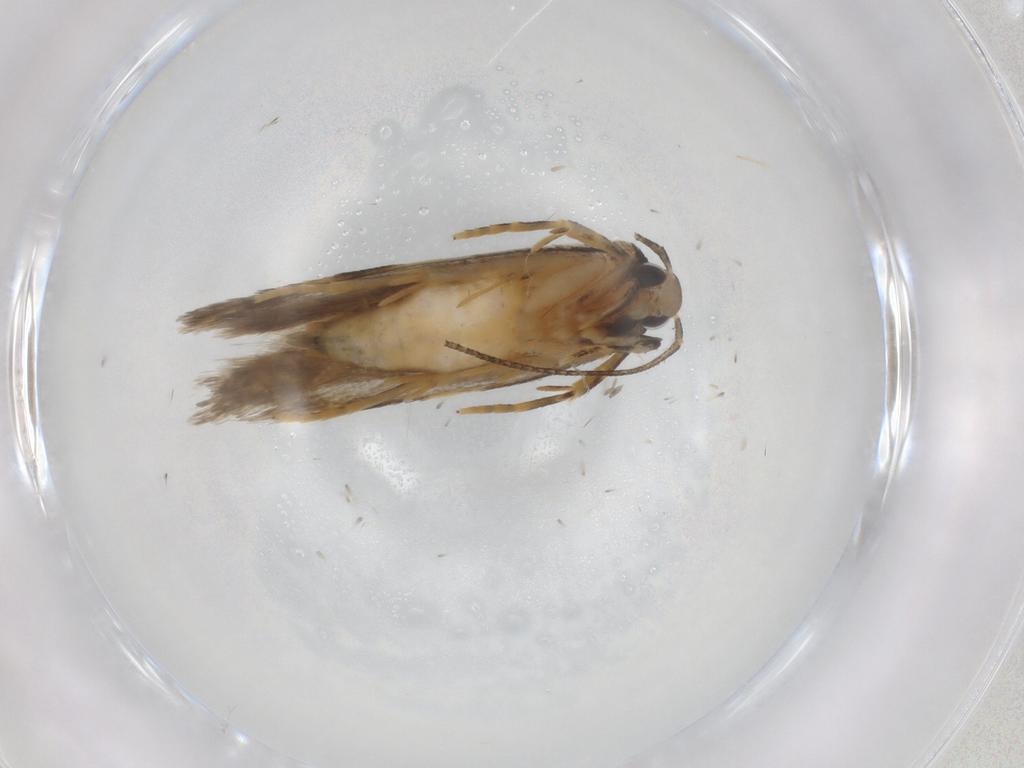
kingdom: Animalia
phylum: Arthropoda
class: Insecta
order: Lepidoptera
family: Autostichidae
